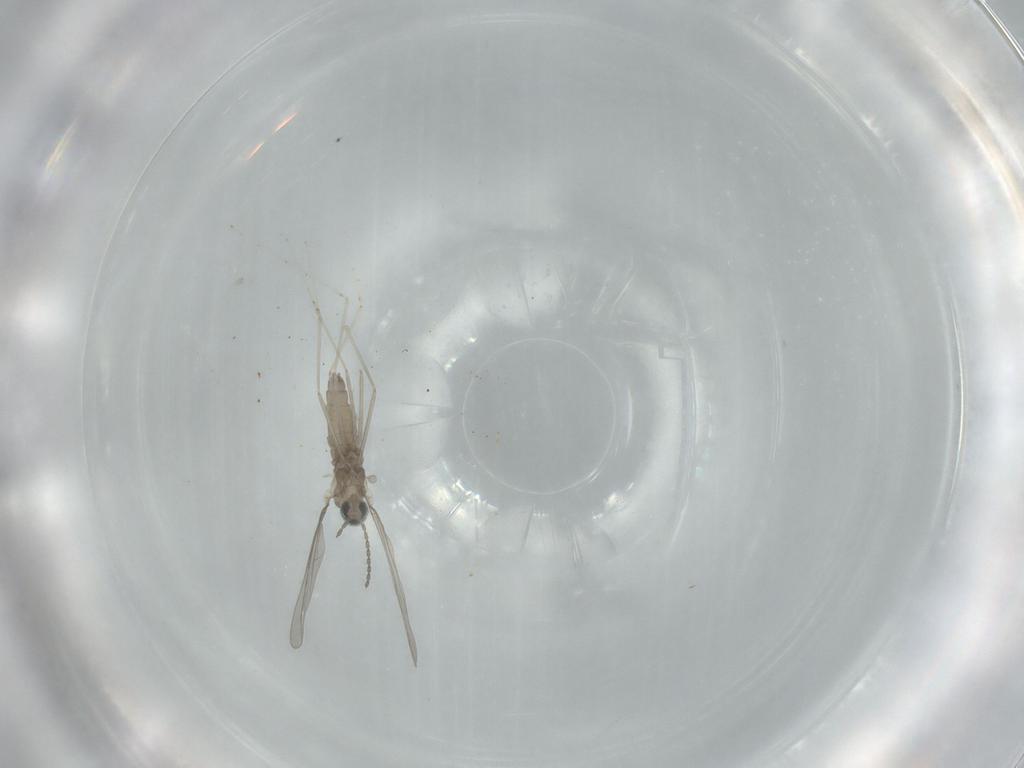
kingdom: Animalia
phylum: Arthropoda
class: Insecta
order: Diptera
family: Cecidomyiidae
